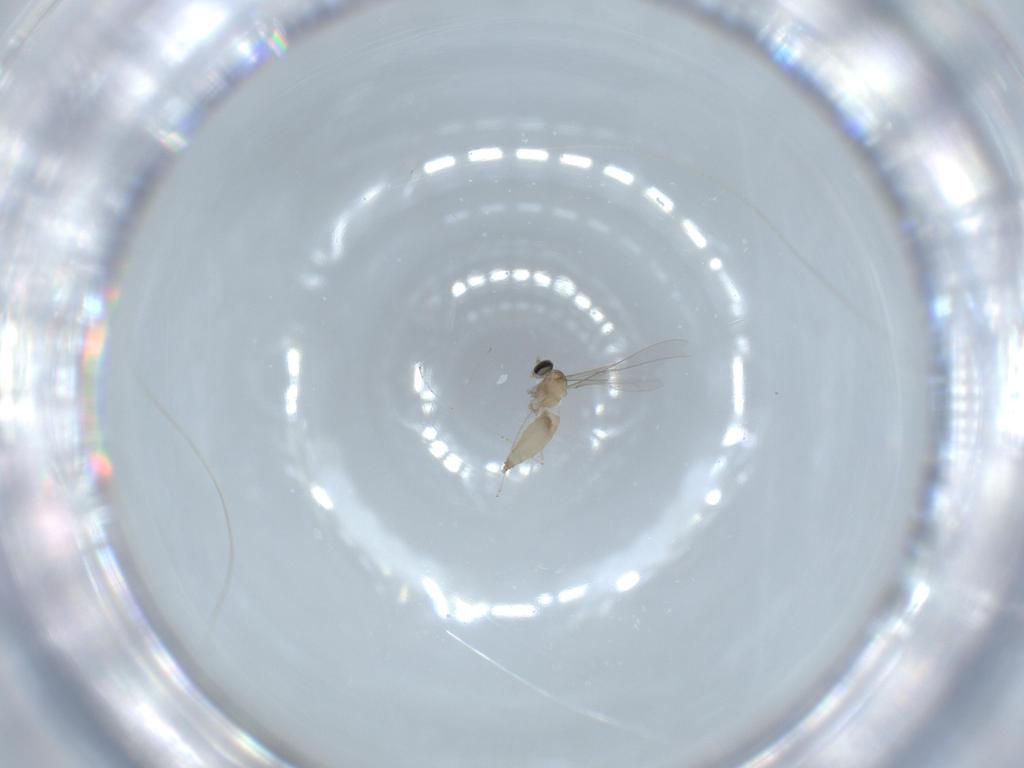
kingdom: Animalia
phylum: Arthropoda
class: Insecta
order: Diptera
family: Cecidomyiidae
